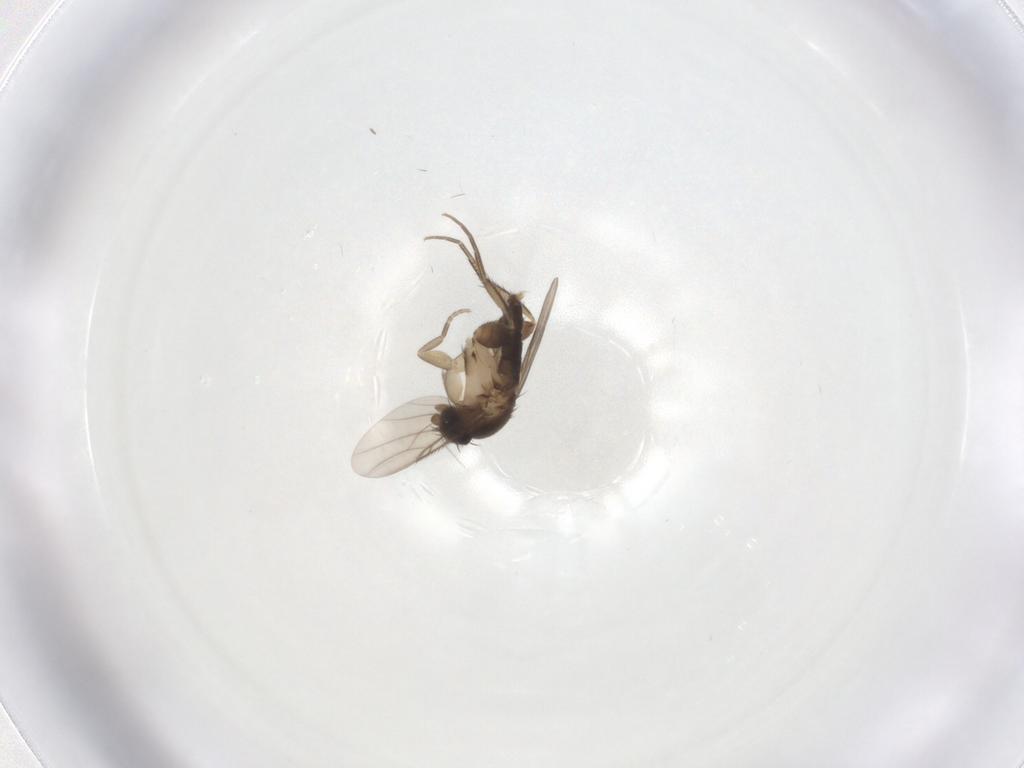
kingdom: Animalia
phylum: Arthropoda
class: Insecta
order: Diptera
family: Phoridae
